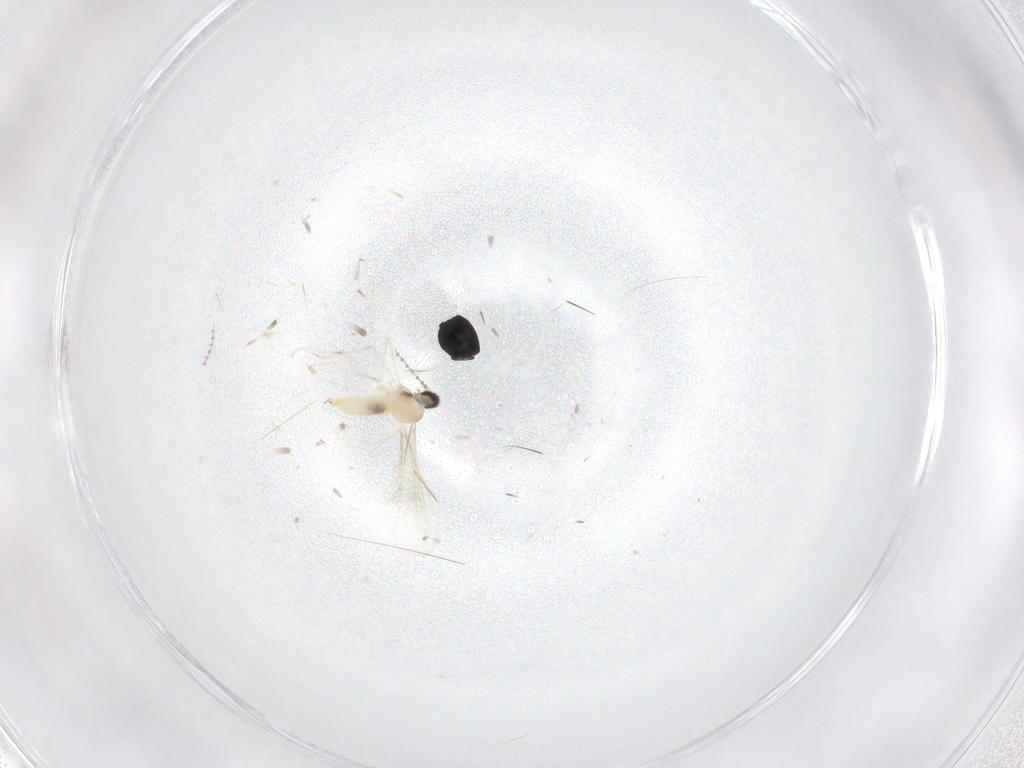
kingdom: Animalia
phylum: Arthropoda
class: Insecta
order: Diptera
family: Cecidomyiidae
